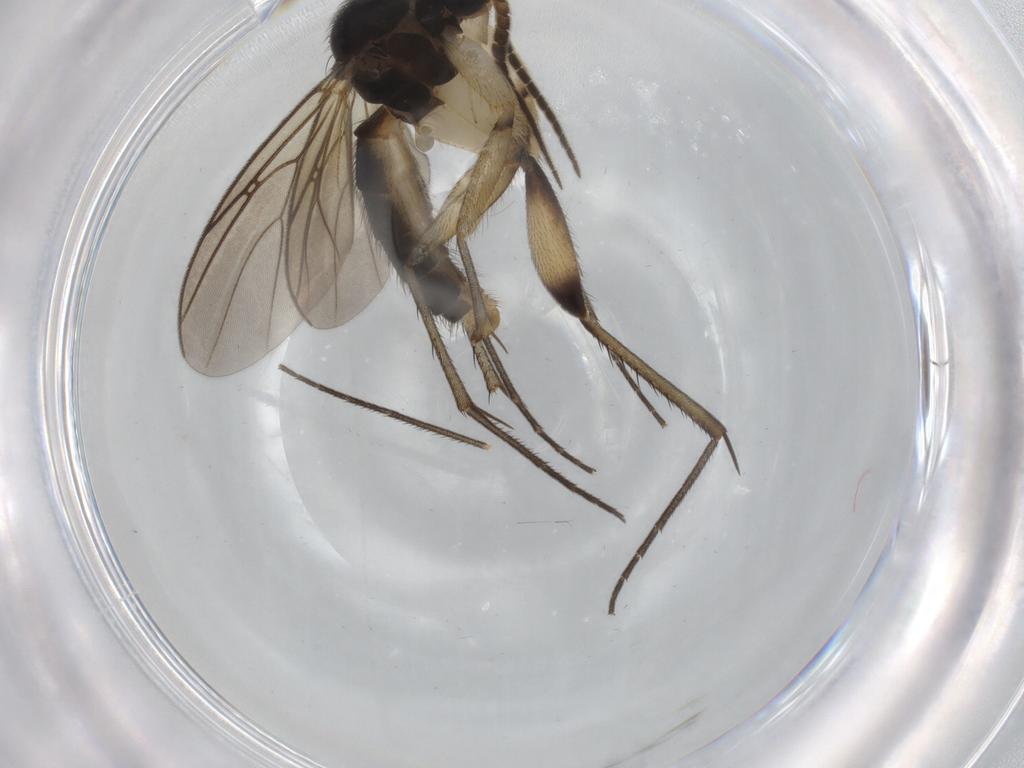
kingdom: Animalia
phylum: Arthropoda
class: Insecta
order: Diptera
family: Mycetophilidae
